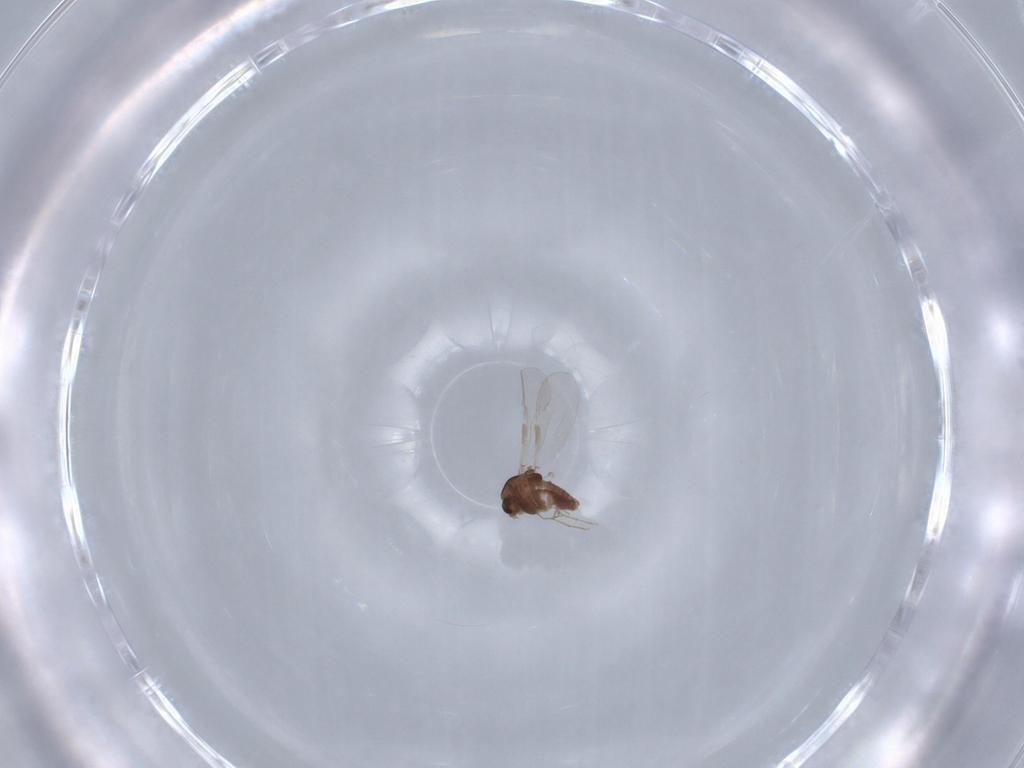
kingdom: Animalia
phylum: Arthropoda
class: Insecta
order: Diptera
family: Chironomidae
